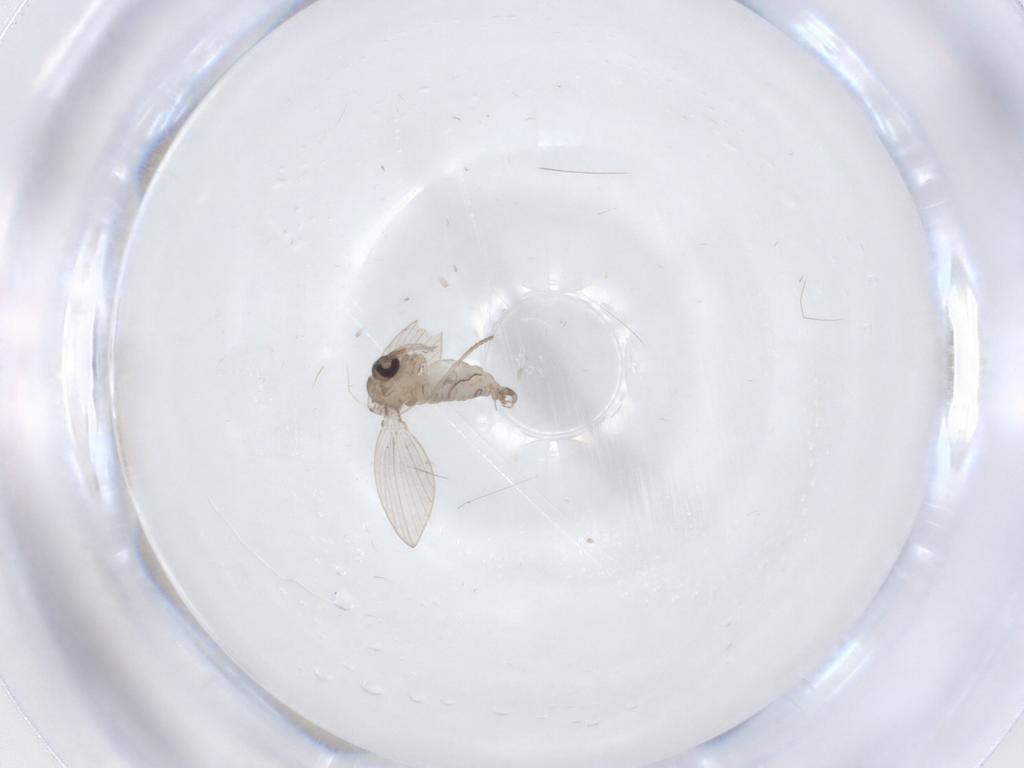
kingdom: Animalia
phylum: Arthropoda
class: Insecta
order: Diptera
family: Psychodidae
